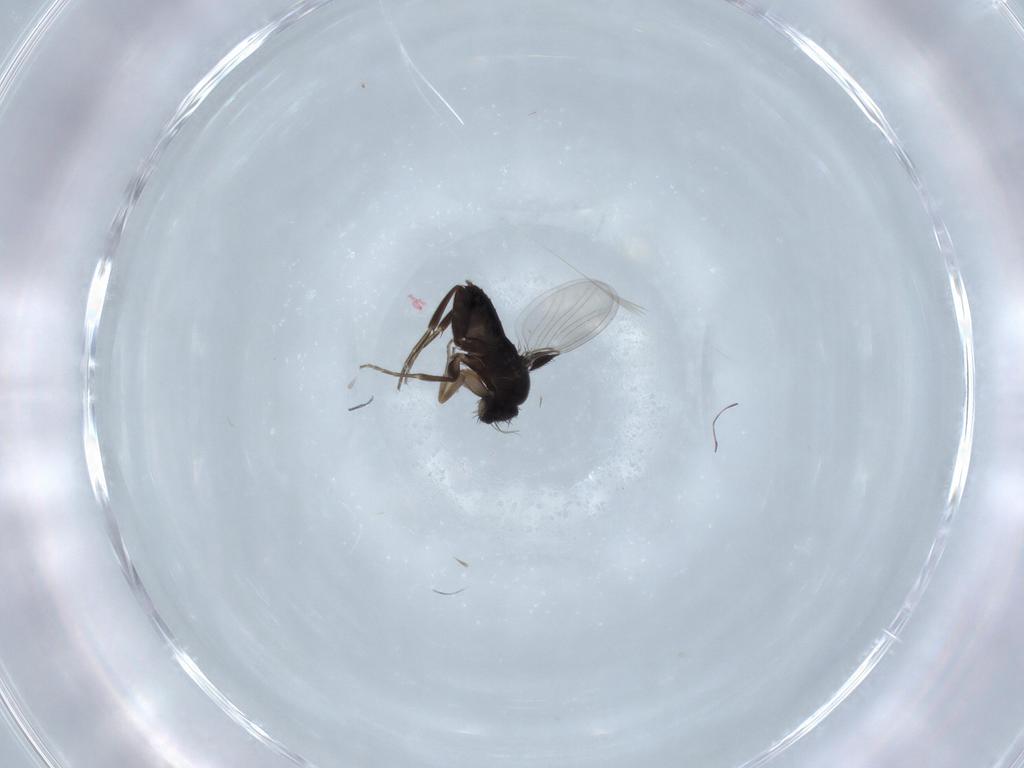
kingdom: Animalia
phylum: Arthropoda
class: Insecta
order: Diptera
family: Phoridae
